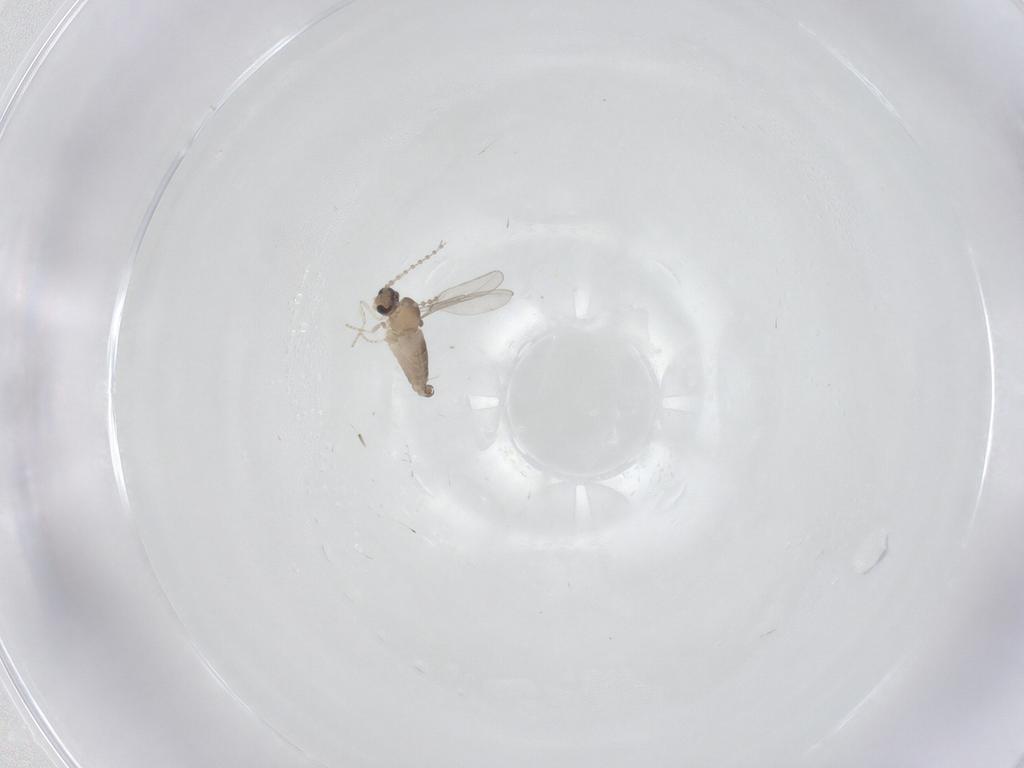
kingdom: Animalia
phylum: Arthropoda
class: Insecta
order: Diptera
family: Cecidomyiidae
